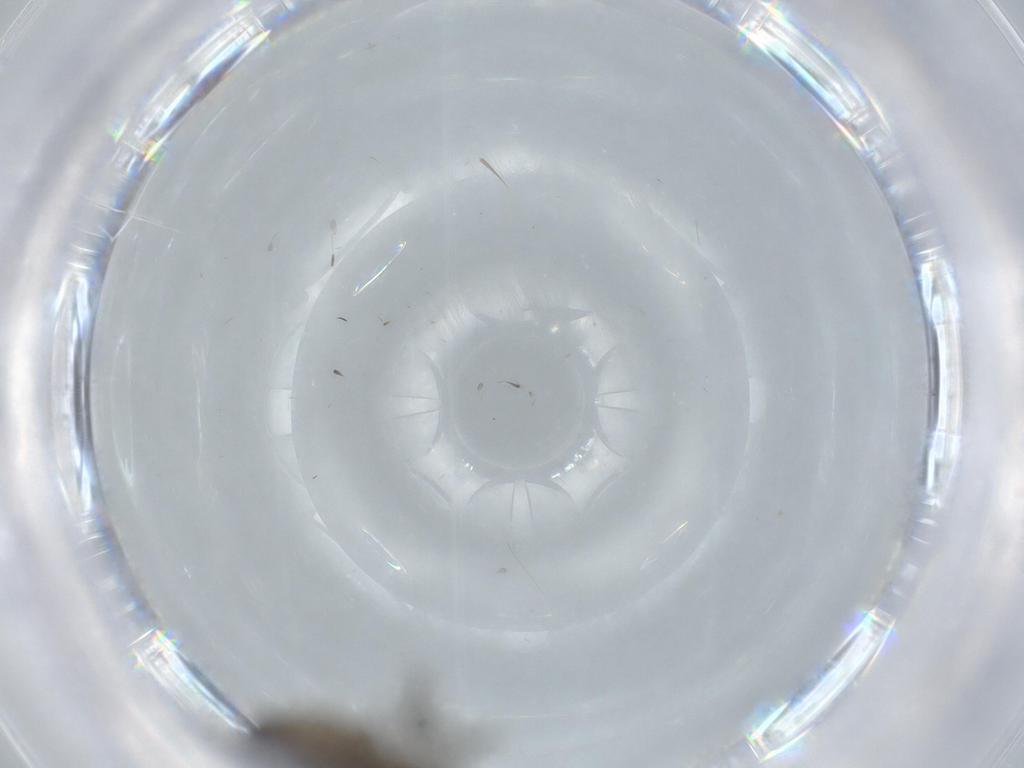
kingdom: Animalia
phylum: Arthropoda
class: Insecta
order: Diptera
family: Sciaridae
